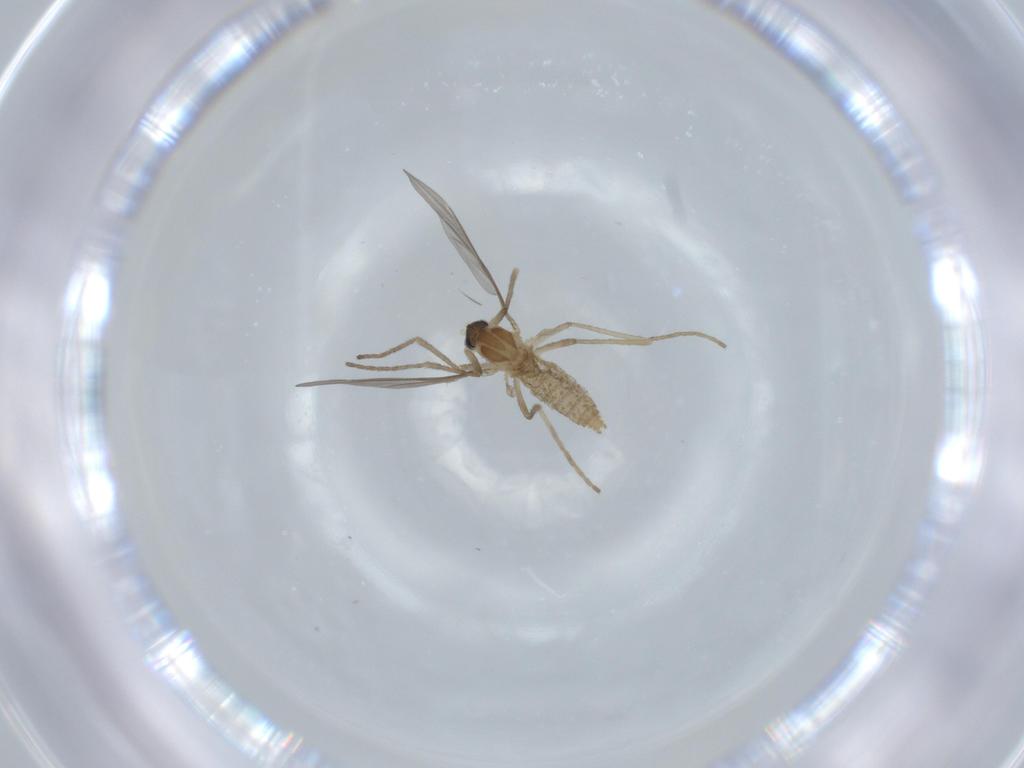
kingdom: Animalia
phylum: Arthropoda
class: Insecta
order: Diptera
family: Cecidomyiidae
